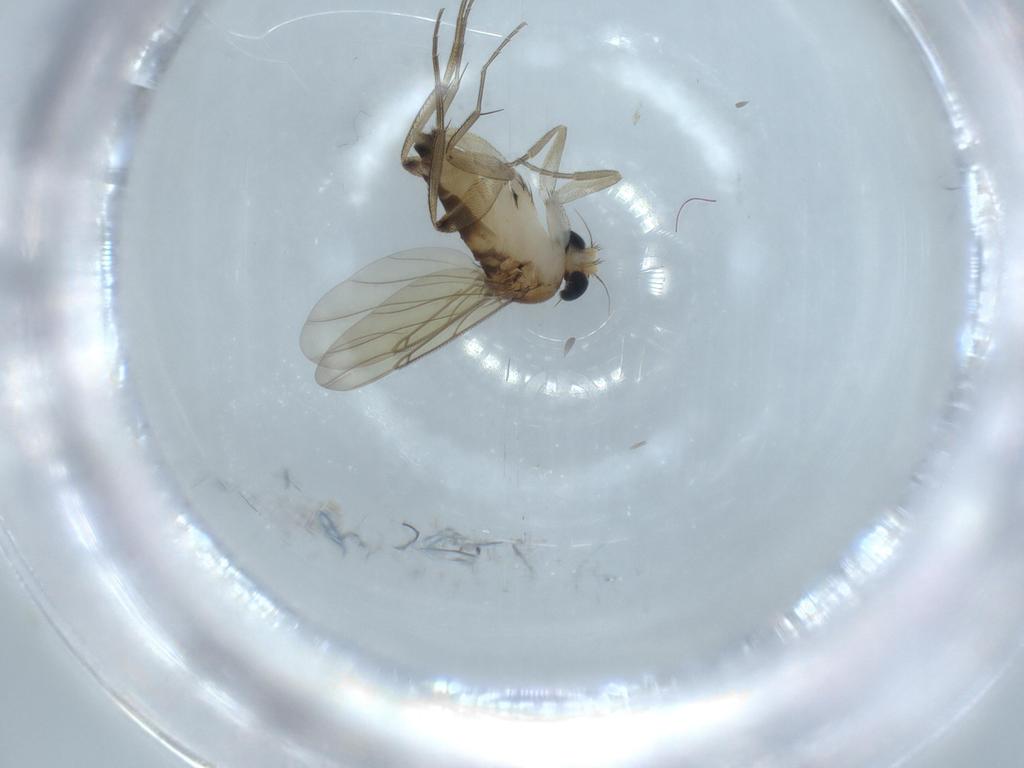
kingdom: Animalia
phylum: Arthropoda
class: Insecta
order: Diptera
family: Phoridae
